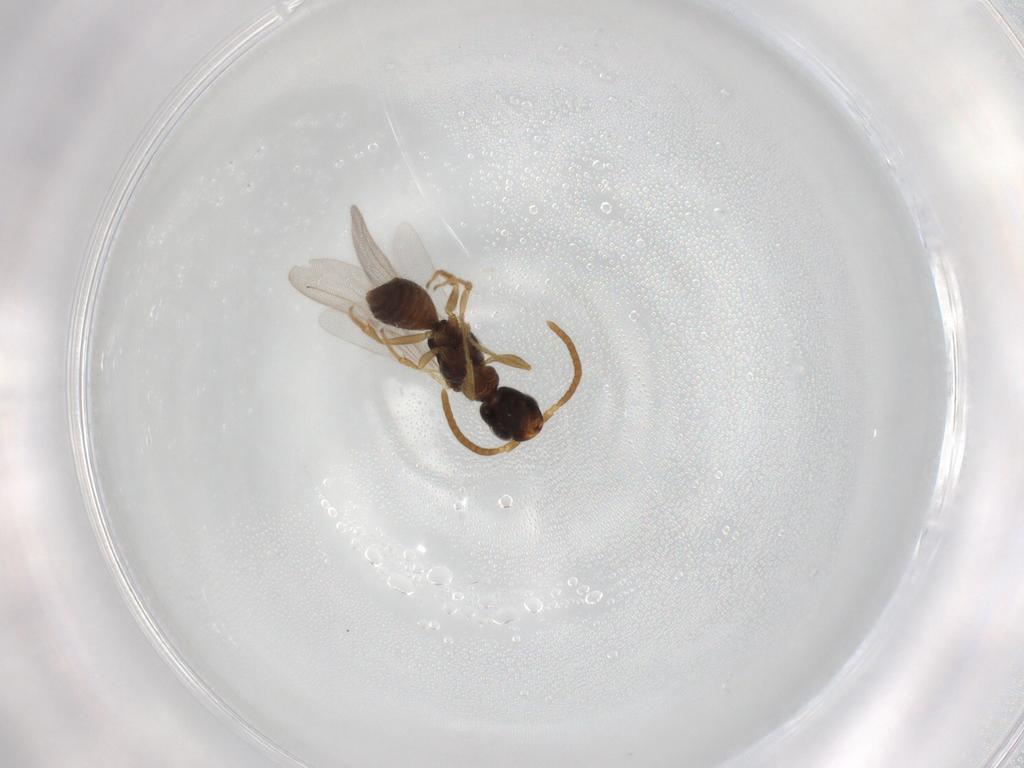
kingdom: Animalia
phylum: Arthropoda
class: Insecta
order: Hymenoptera
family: Bethylidae
